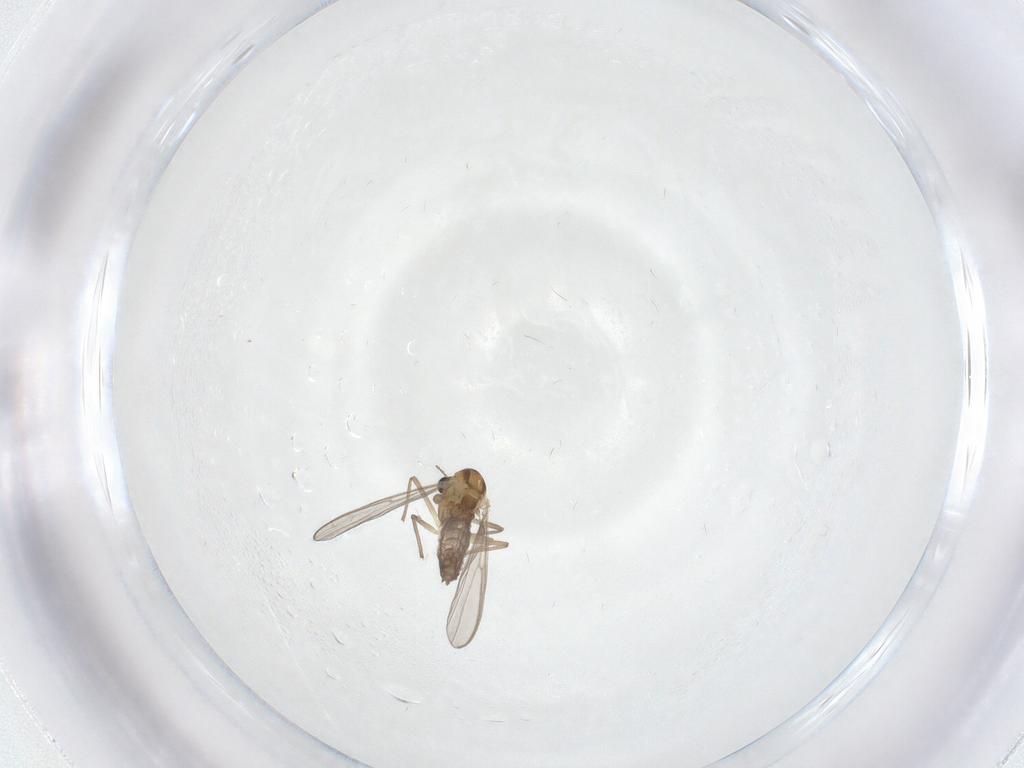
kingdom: Animalia
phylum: Arthropoda
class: Insecta
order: Diptera
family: Chironomidae
